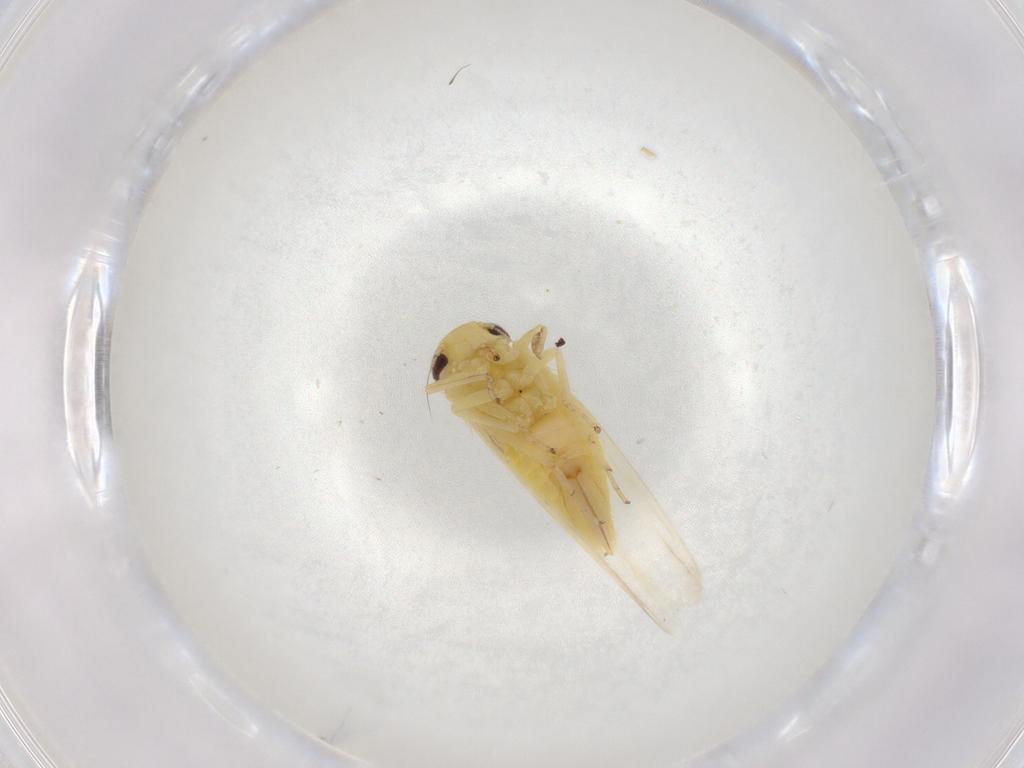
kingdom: Animalia
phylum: Arthropoda
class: Insecta
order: Hemiptera
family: Cicadellidae
